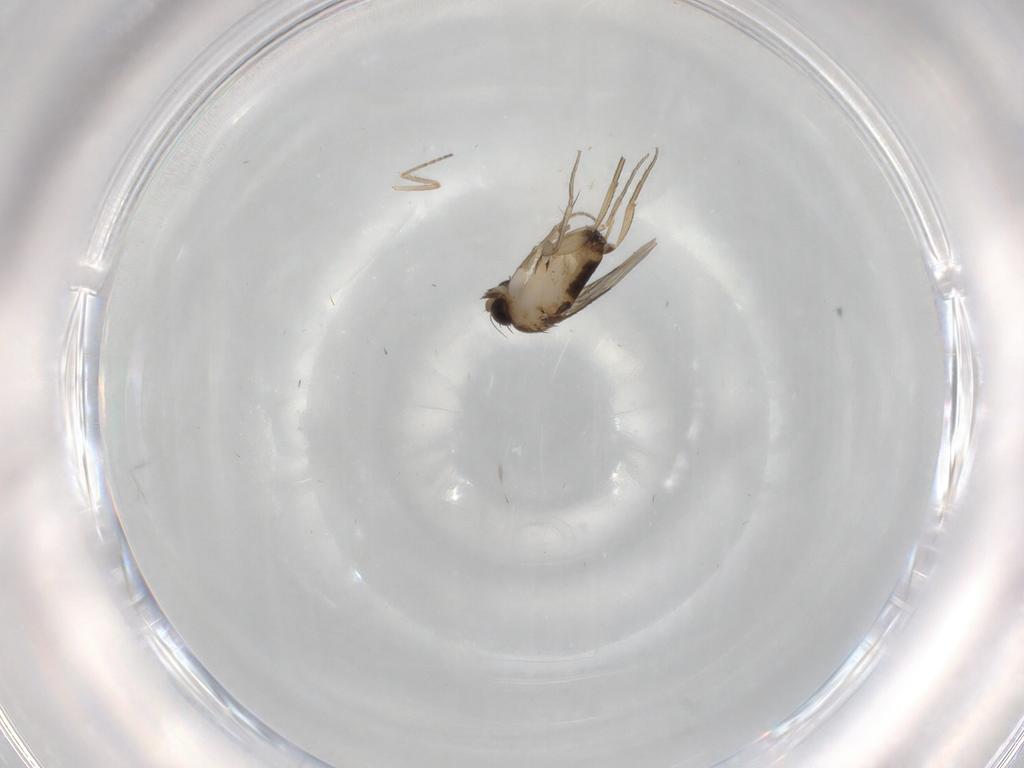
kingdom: Animalia
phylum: Arthropoda
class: Insecta
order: Diptera
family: Phoridae
